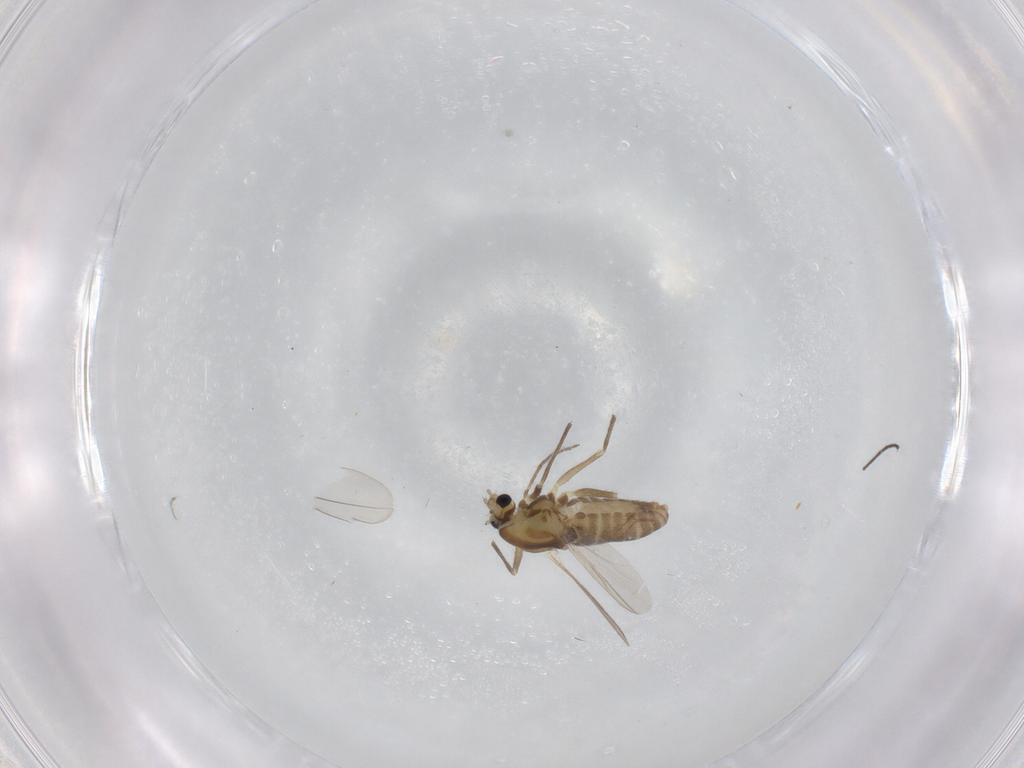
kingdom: Animalia
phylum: Arthropoda
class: Insecta
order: Diptera
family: Chironomidae
